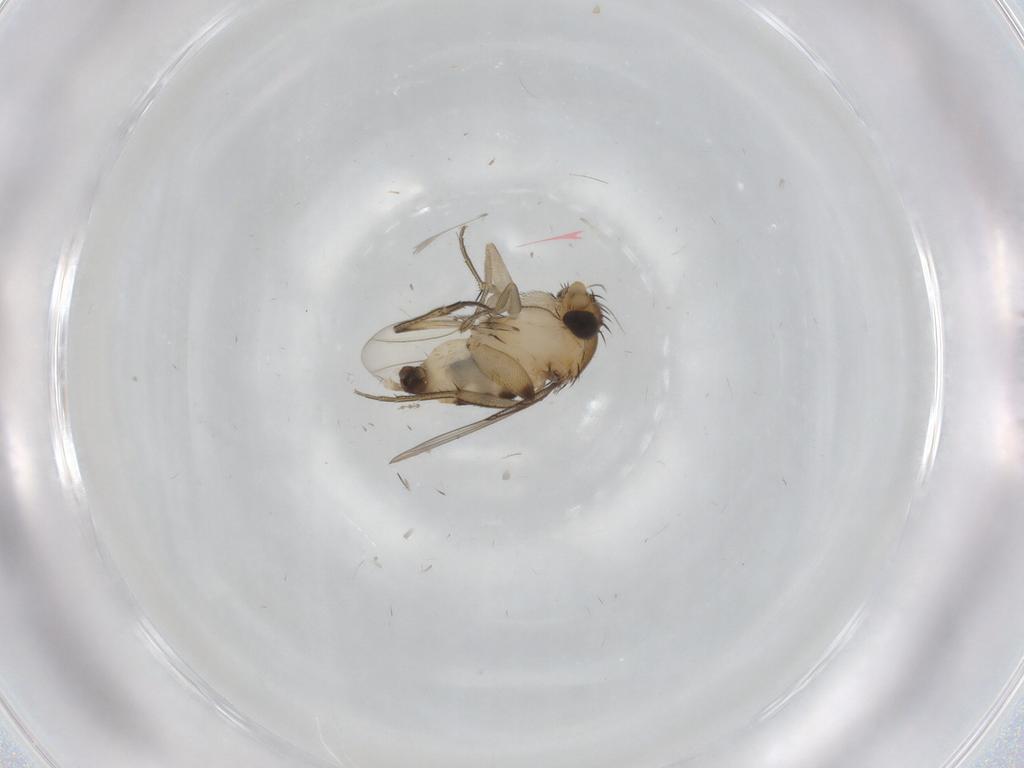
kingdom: Animalia
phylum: Arthropoda
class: Insecta
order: Diptera
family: Phoridae
